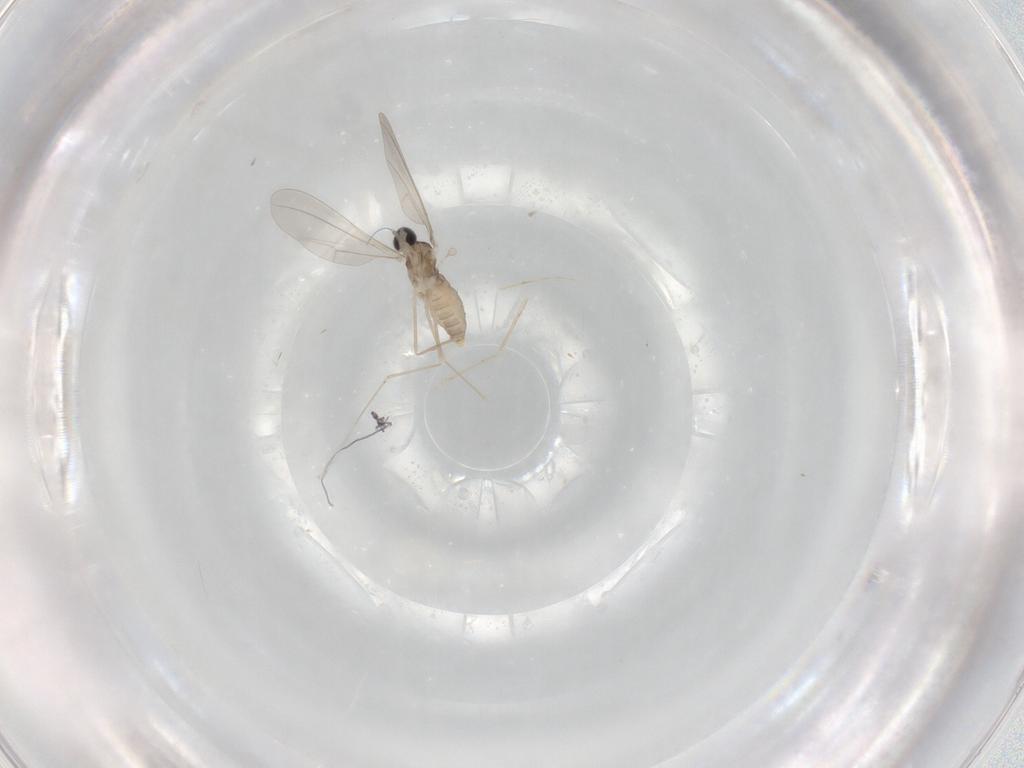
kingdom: Animalia
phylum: Arthropoda
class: Insecta
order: Diptera
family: Cecidomyiidae
